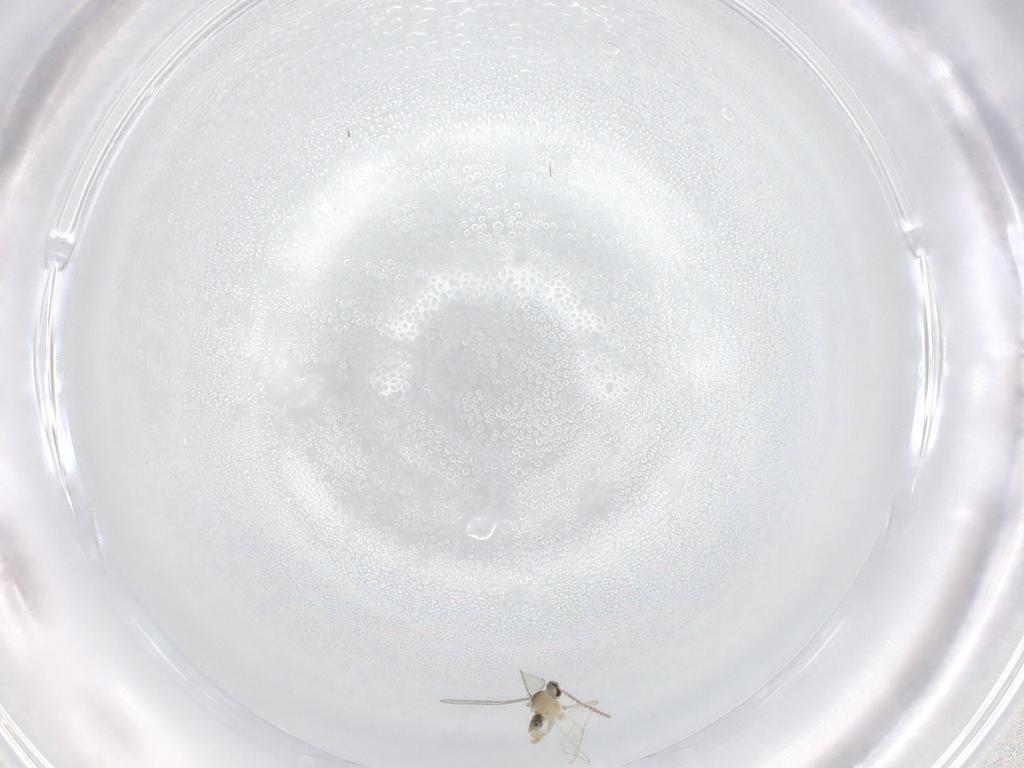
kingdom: Animalia
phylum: Arthropoda
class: Insecta
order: Diptera
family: Cecidomyiidae
